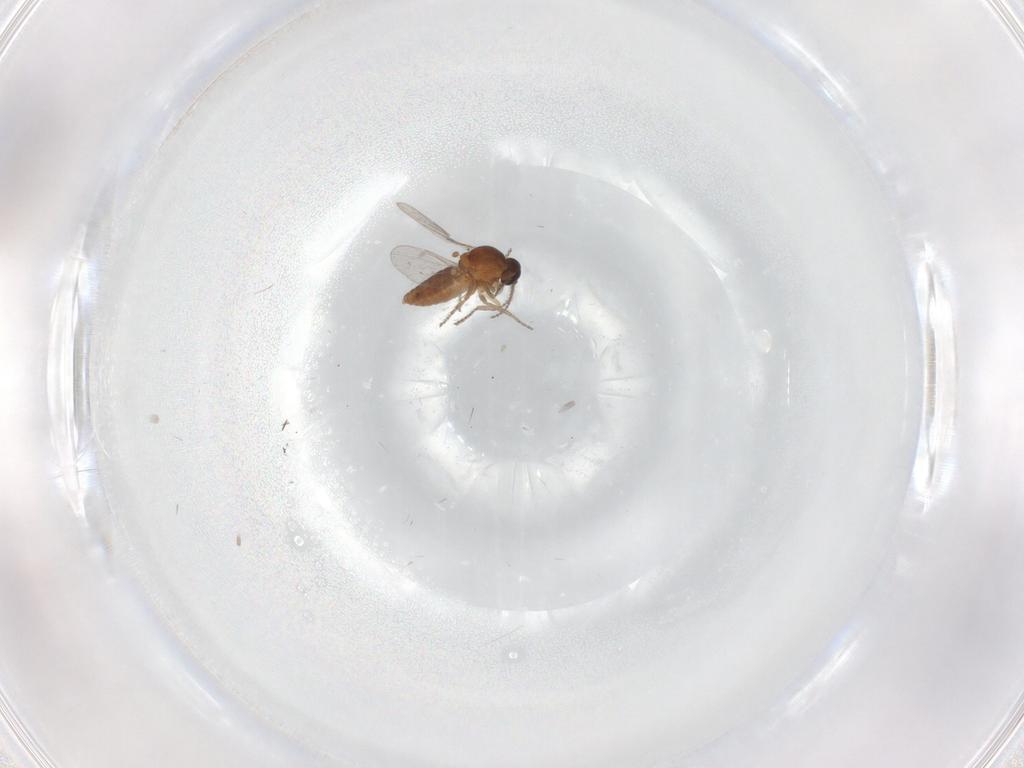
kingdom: Animalia
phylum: Arthropoda
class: Insecta
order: Diptera
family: Ceratopogonidae
